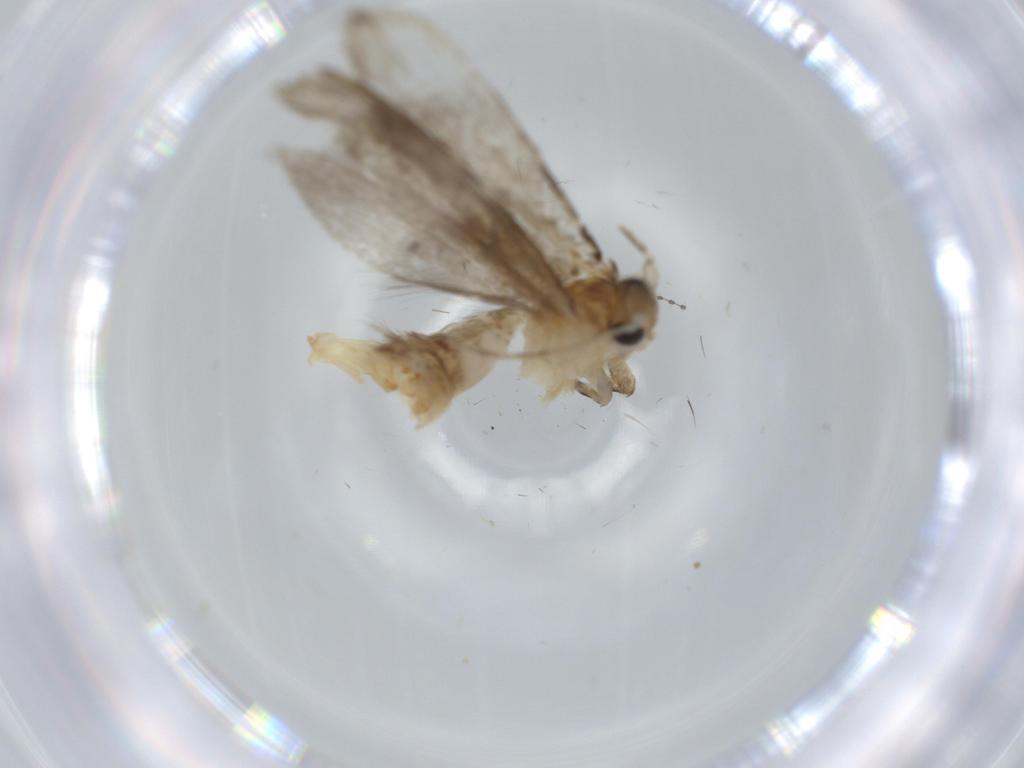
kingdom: Animalia
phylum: Arthropoda
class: Insecta
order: Lepidoptera
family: Tineidae
